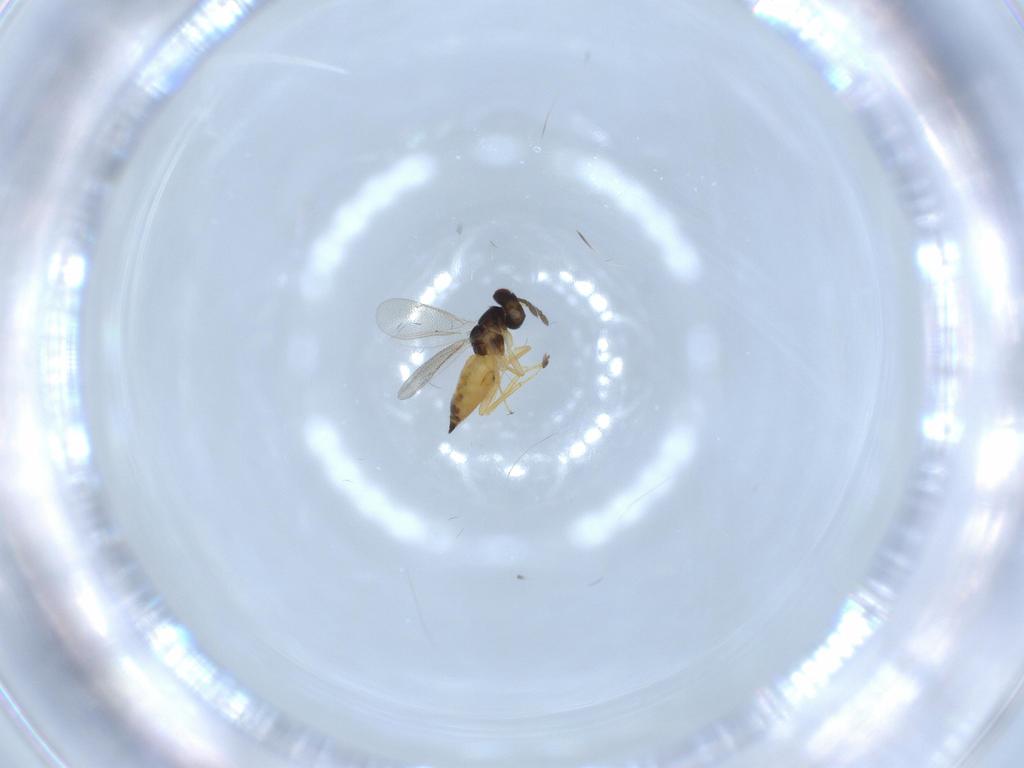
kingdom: Animalia
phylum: Arthropoda
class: Insecta
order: Hymenoptera
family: Eulophidae
